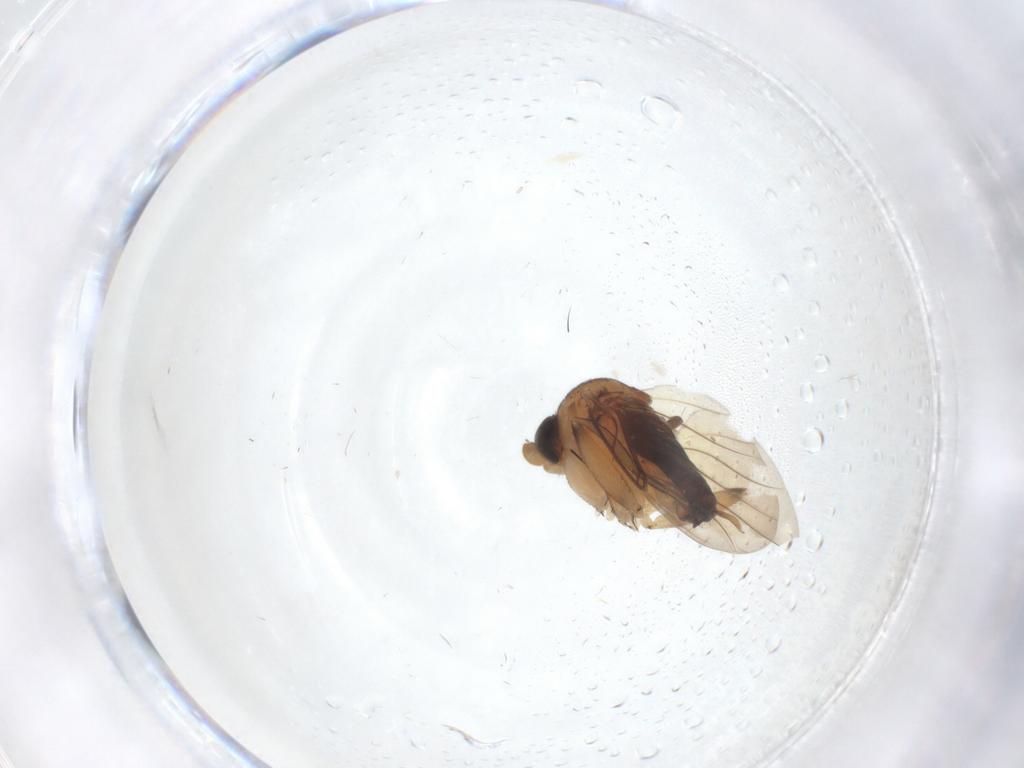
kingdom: Animalia
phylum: Arthropoda
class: Insecta
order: Diptera
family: Phoridae
